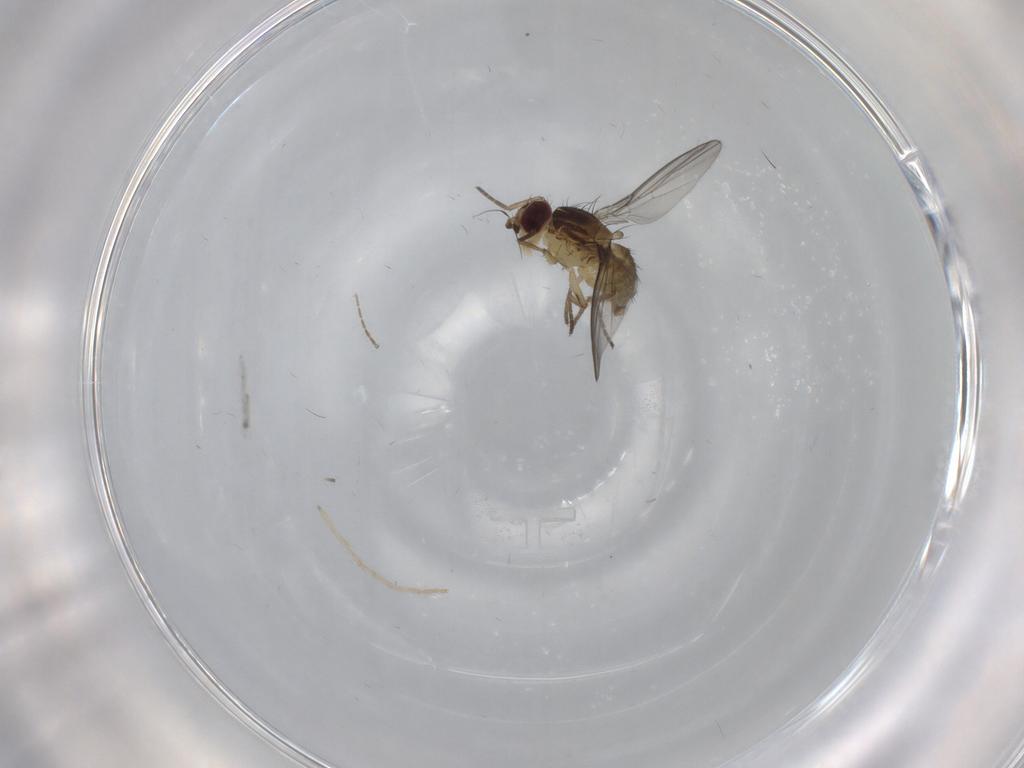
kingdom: Animalia
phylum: Arthropoda
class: Insecta
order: Diptera
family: Agromyzidae
